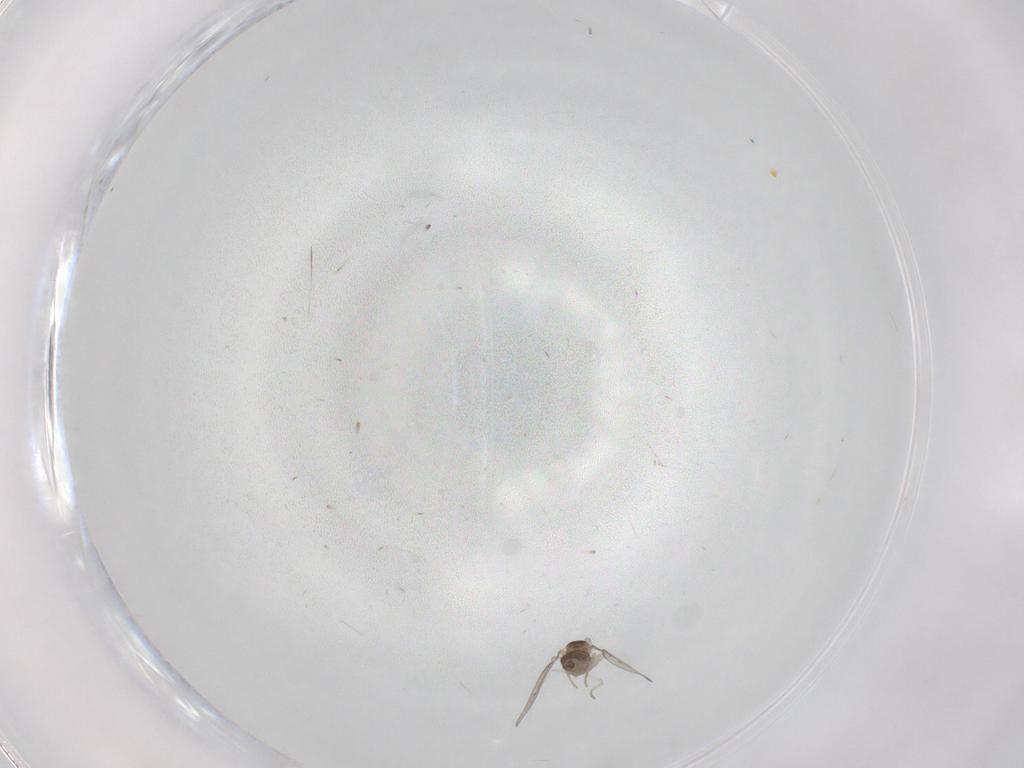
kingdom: Animalia
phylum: Arthropoda
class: Insecta
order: Diptera
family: Cecidomyiidae
